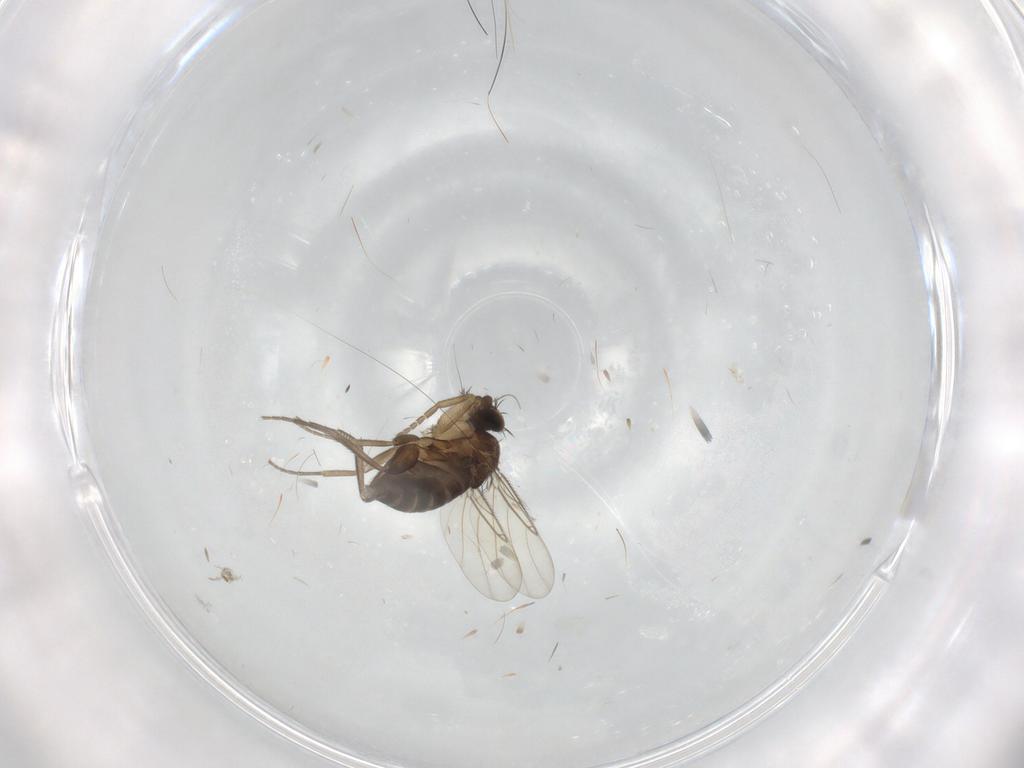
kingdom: Animalia
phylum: Arthropoda
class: Insecta
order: Diptera
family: Phoridae
